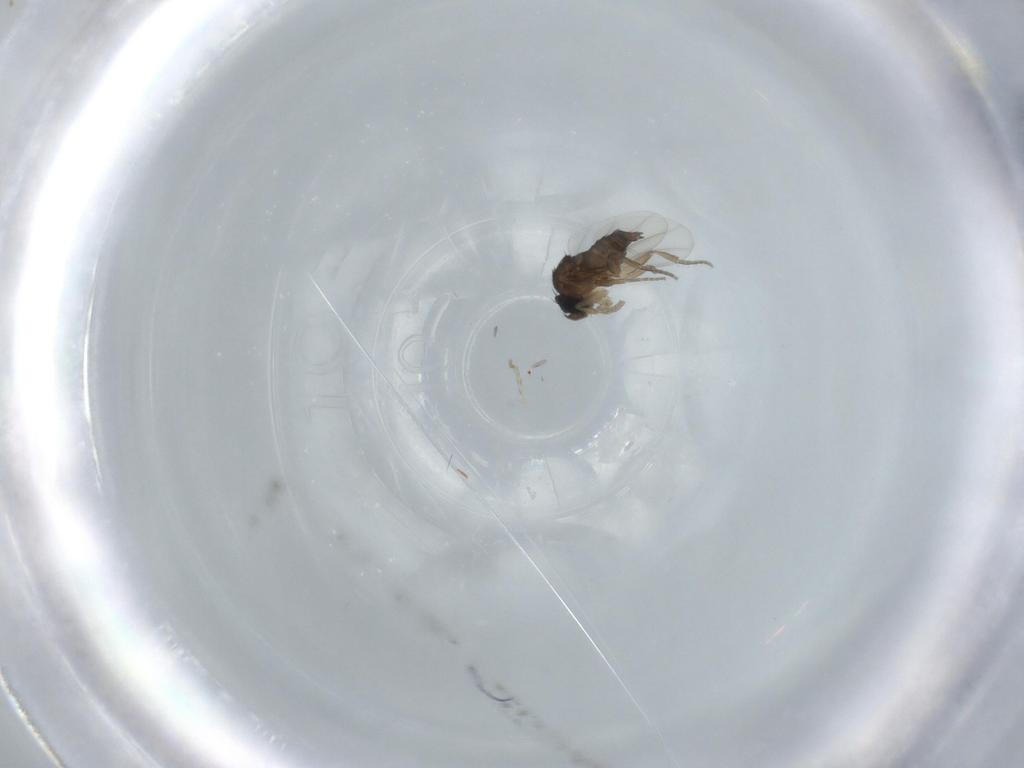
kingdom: Animalia
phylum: Arthropoda
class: Insecta
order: Diptera
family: Phoridae
